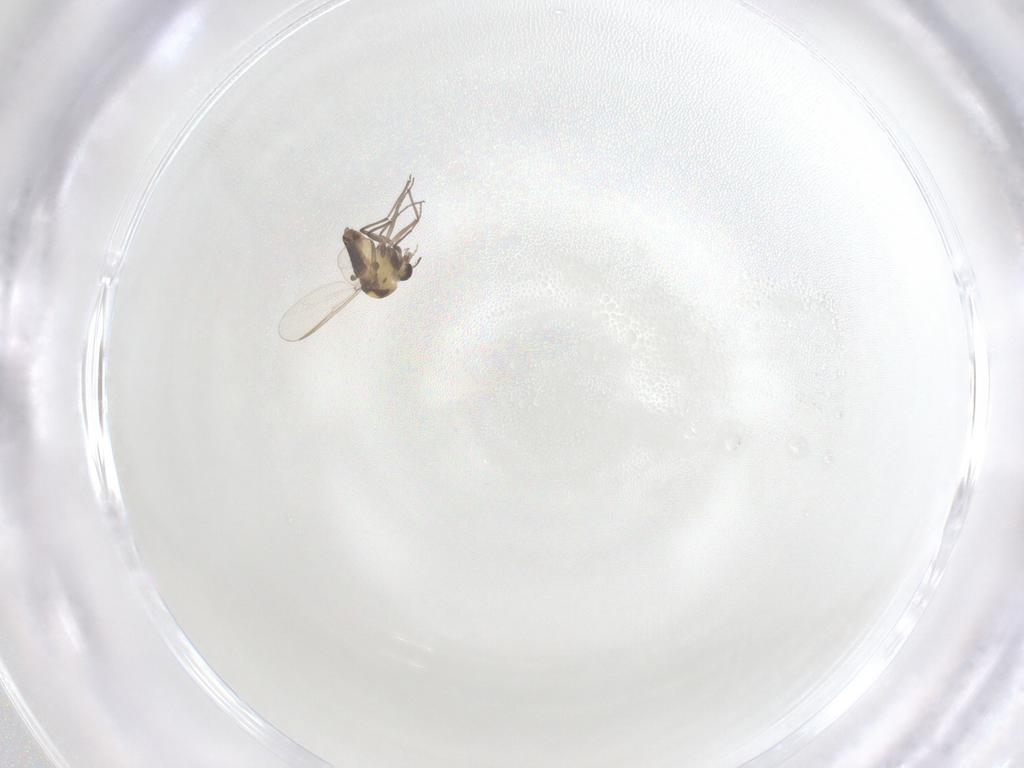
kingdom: Animalia
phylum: Arthropoda
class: Insecta
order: Diptera
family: Chironomidae
